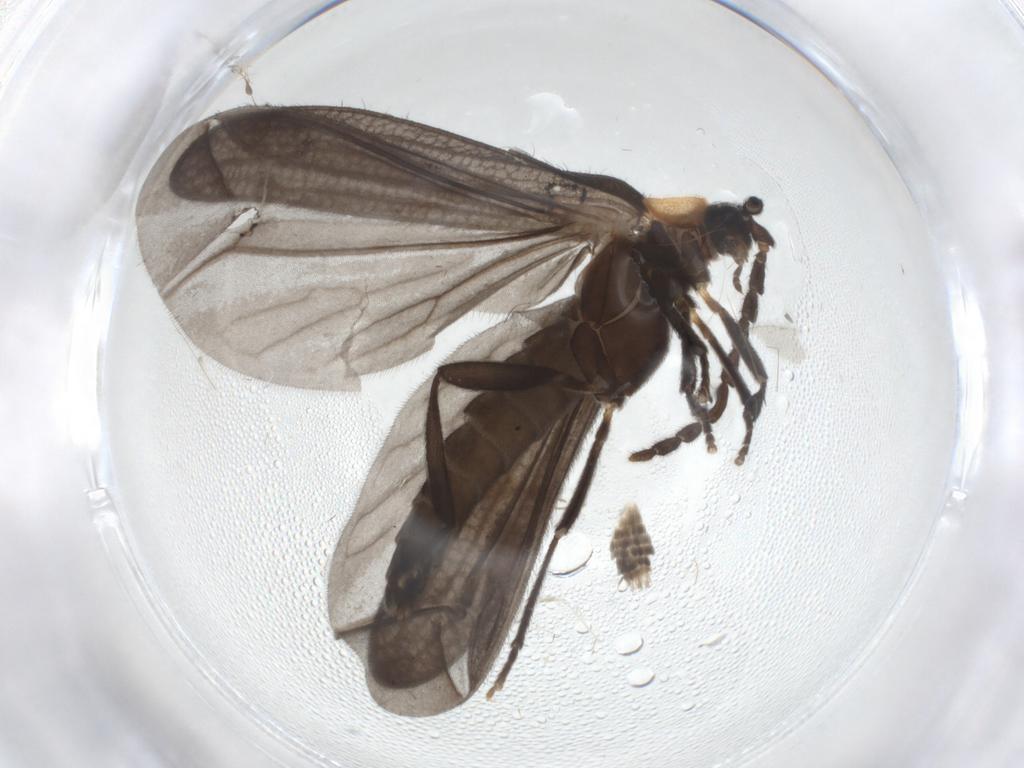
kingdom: Animalia
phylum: Arthropoda
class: Insecta
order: Coleoptera
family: Lycidae
